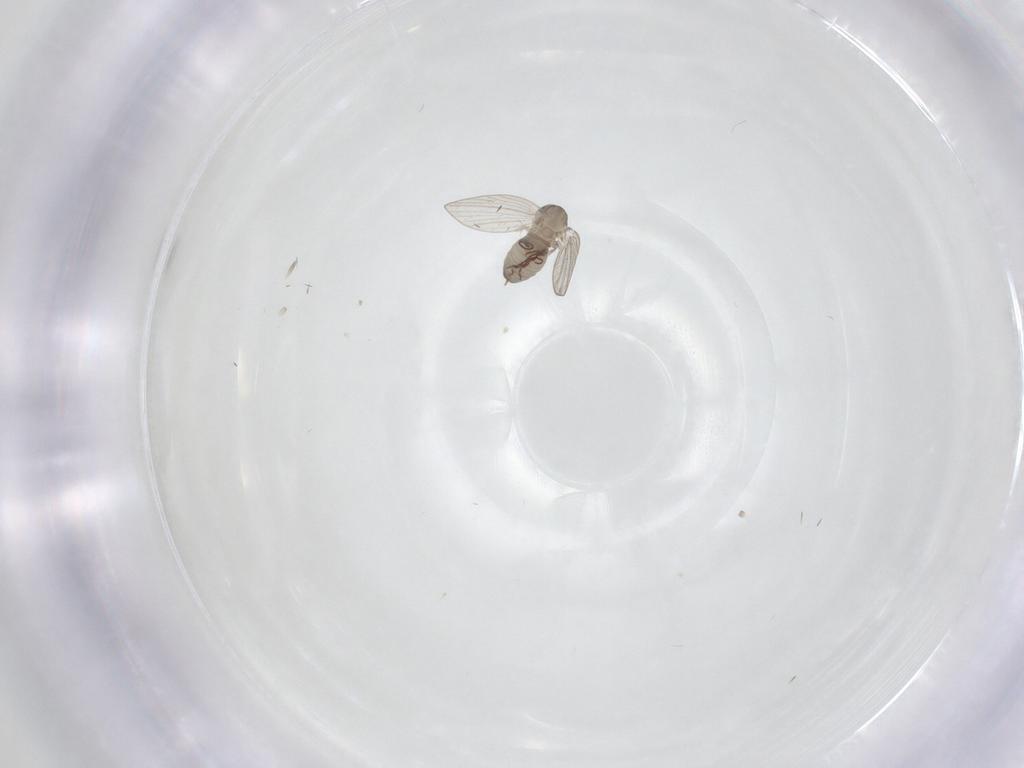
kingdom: Animalia
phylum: Arthropoda
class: Insecta
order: Diptera
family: Psychodidae
